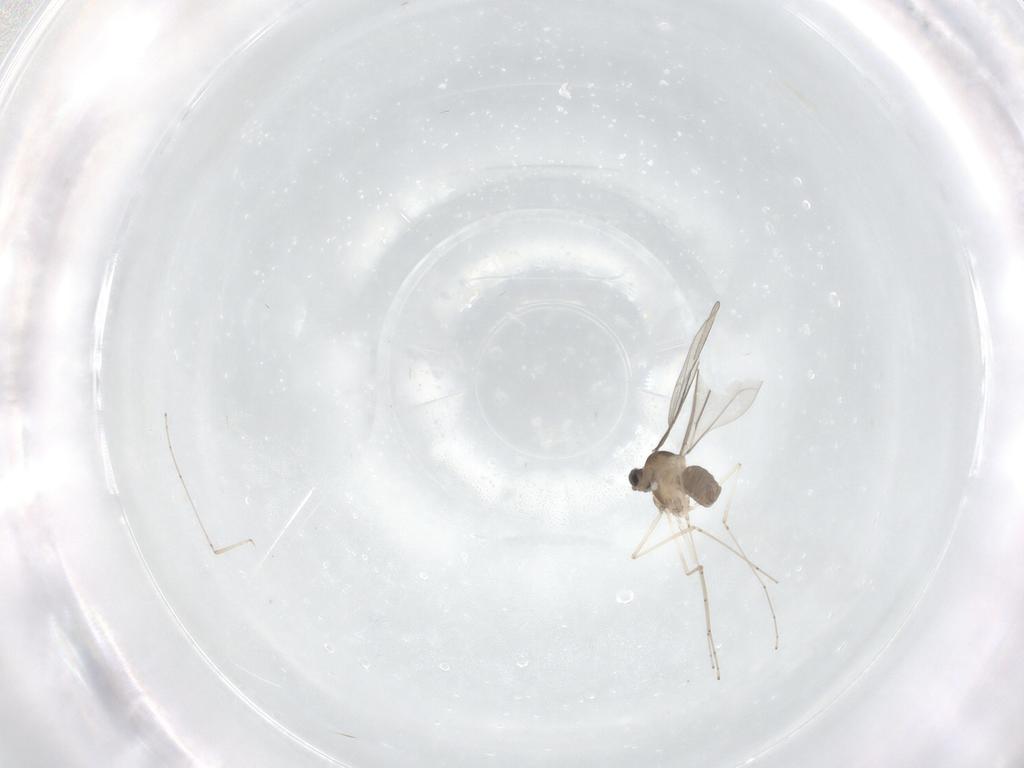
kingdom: Animalia
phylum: Arthropoda
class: Insecta
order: Diptera
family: Cecidomyiidae
